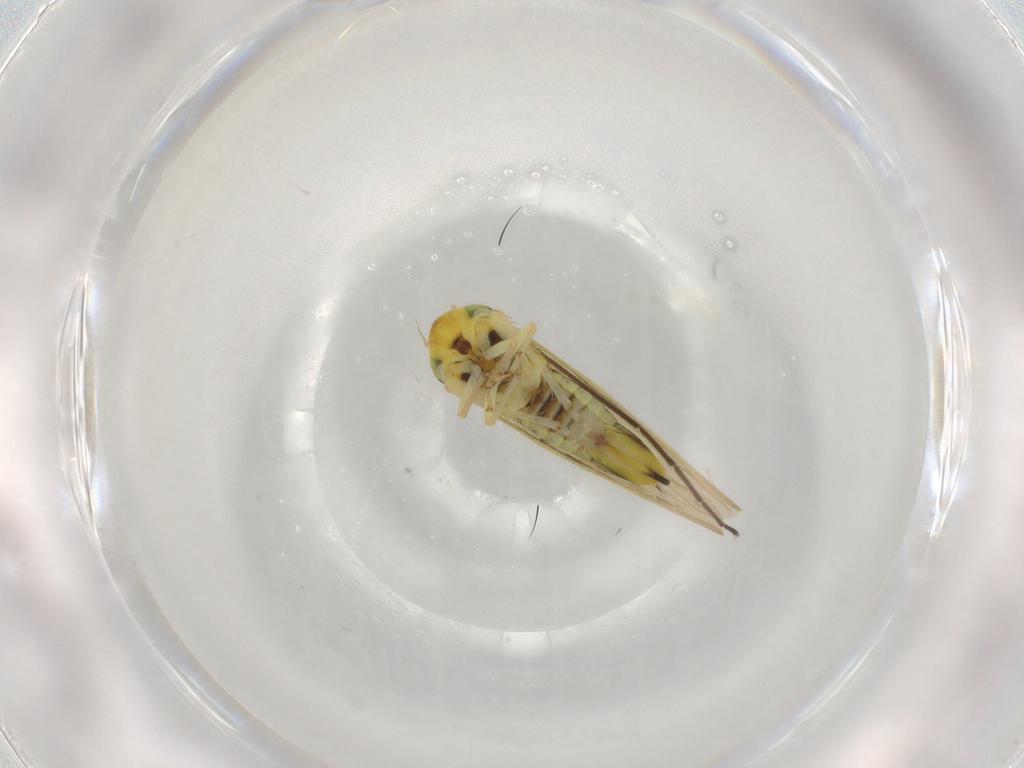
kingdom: Animalia
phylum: Arthropoda
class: Insecta
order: Hemiptera
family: Cicadellidae
